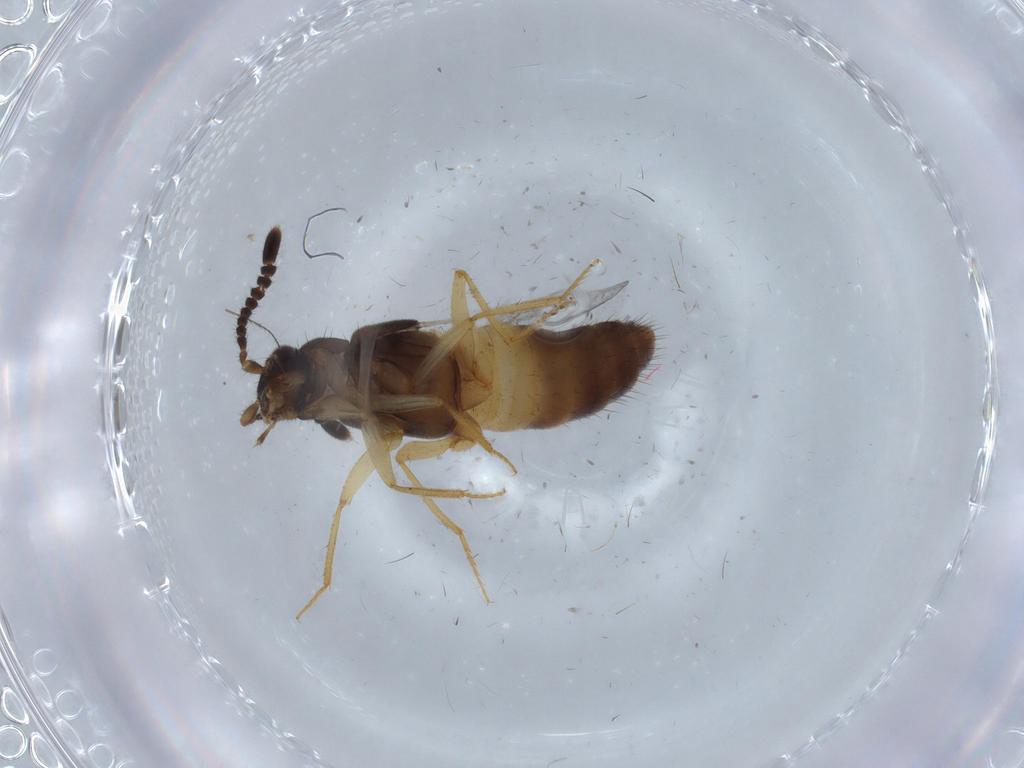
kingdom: Animalia
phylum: Arthropoda
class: Insecta
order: Coleoptera
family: Staphylinidae
